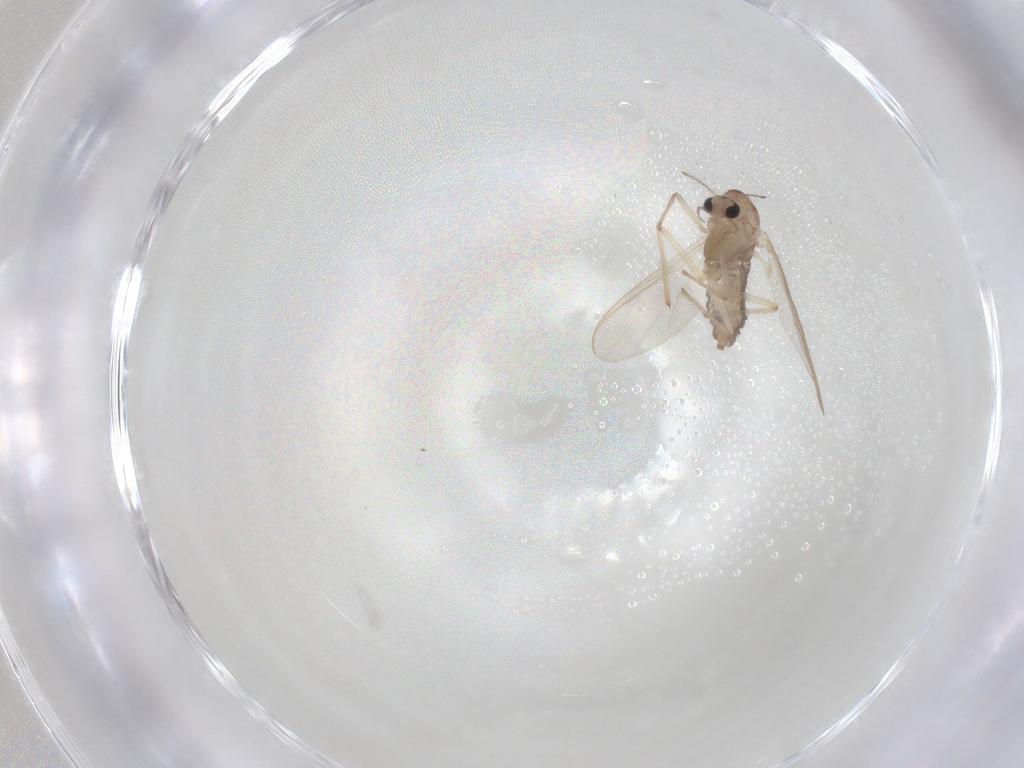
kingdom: Animalia
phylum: Arthropoda
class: Insecta
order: Diptera
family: Chironomidae
